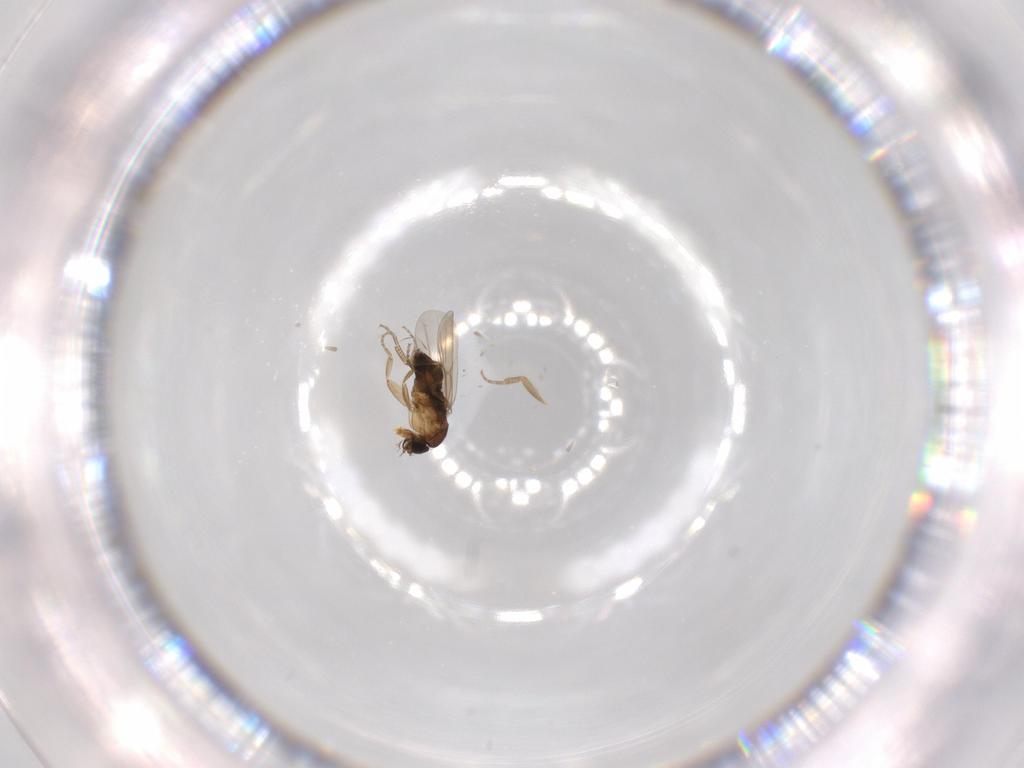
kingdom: Animalia
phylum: Arthropoda
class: Insecta
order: Diptera
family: Phoridae
